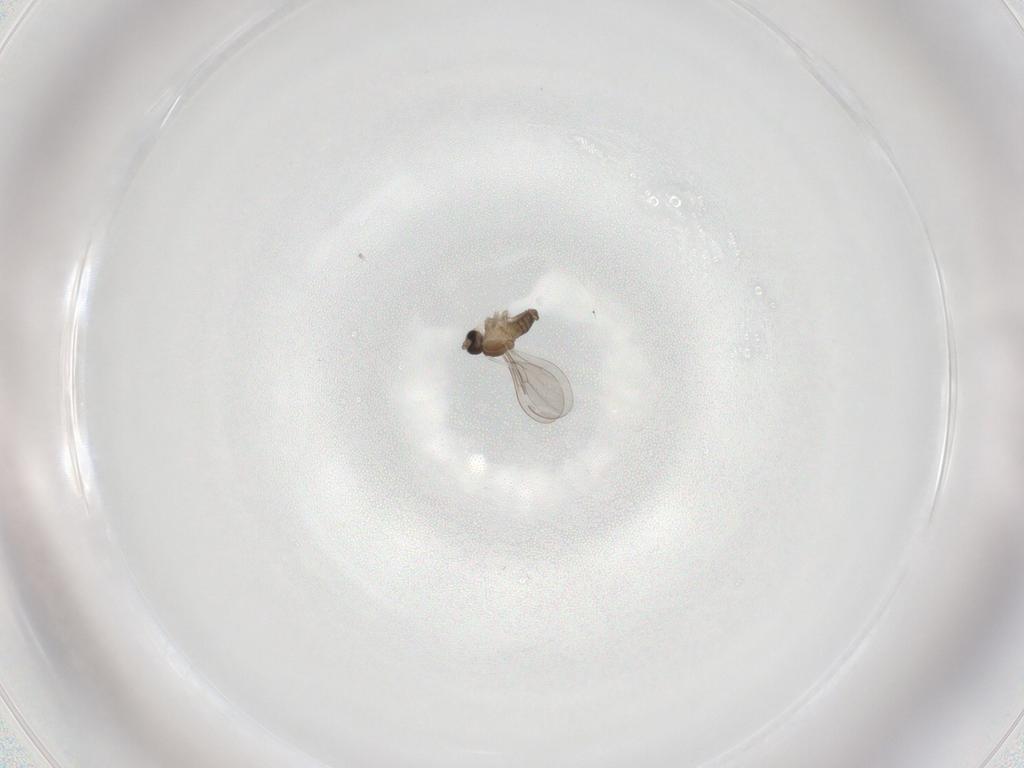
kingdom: Animalia
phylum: Arthropoda
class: Insecta
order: Diptera
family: Cecidomyiidae
